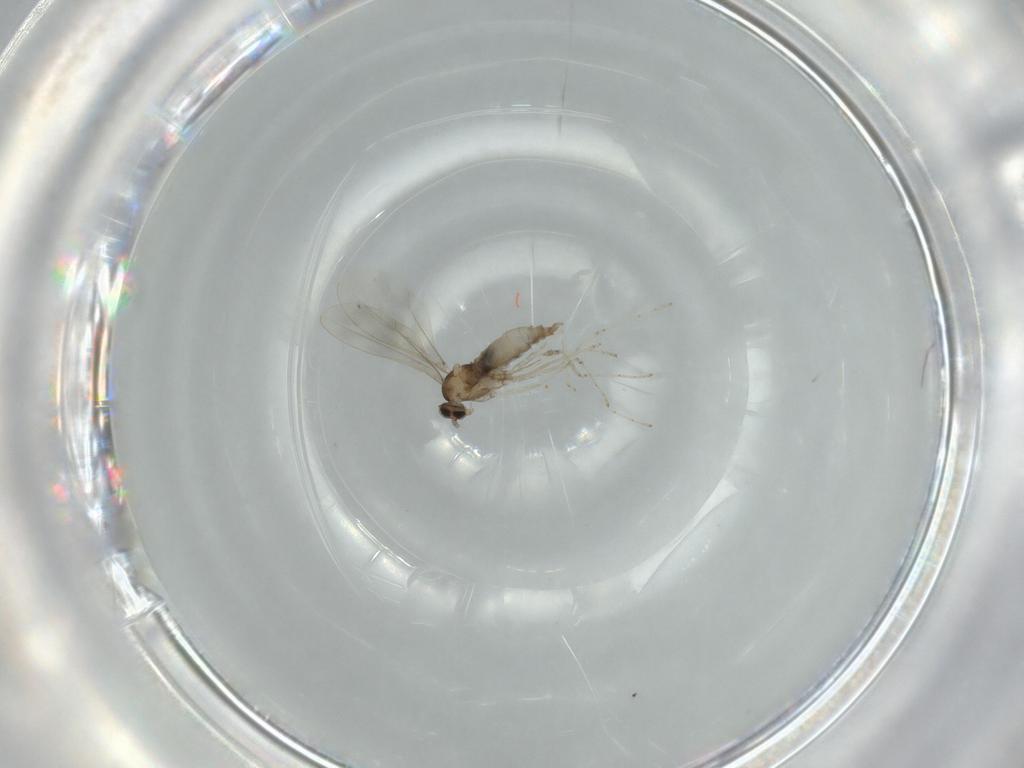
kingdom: Animalia
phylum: Arthropoda
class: Insecta
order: Diptera
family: Cecidomyiidae
